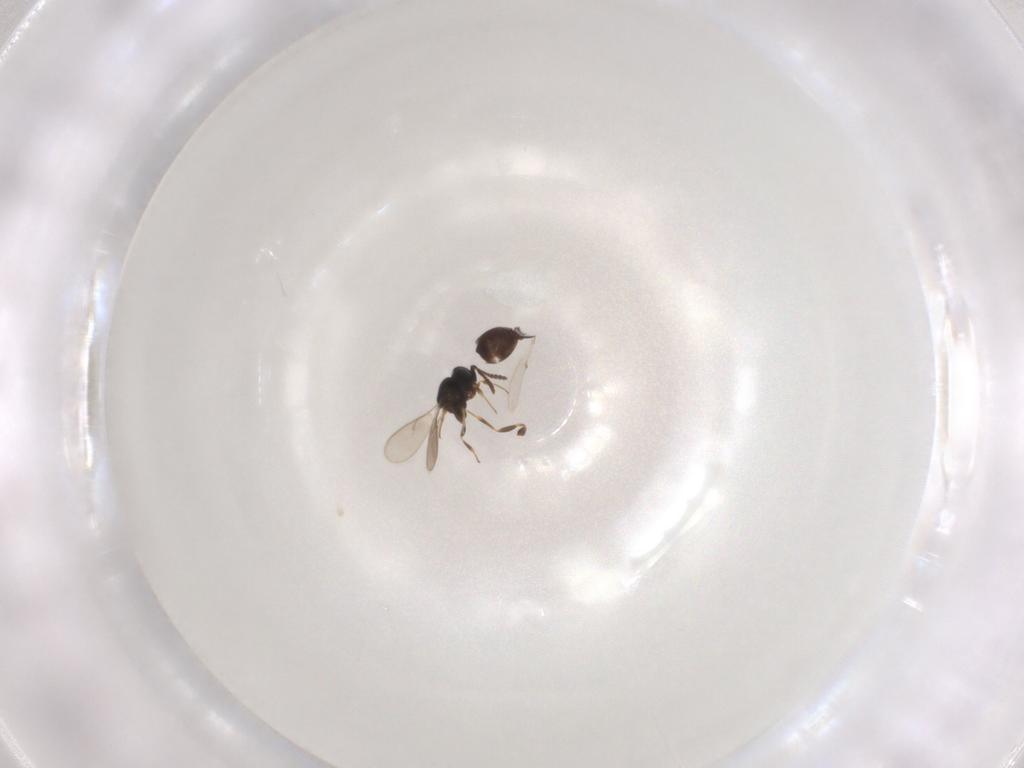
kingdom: Animalia
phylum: Arthropoda
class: Insecta
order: Hymenoptera
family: Scelionidae
